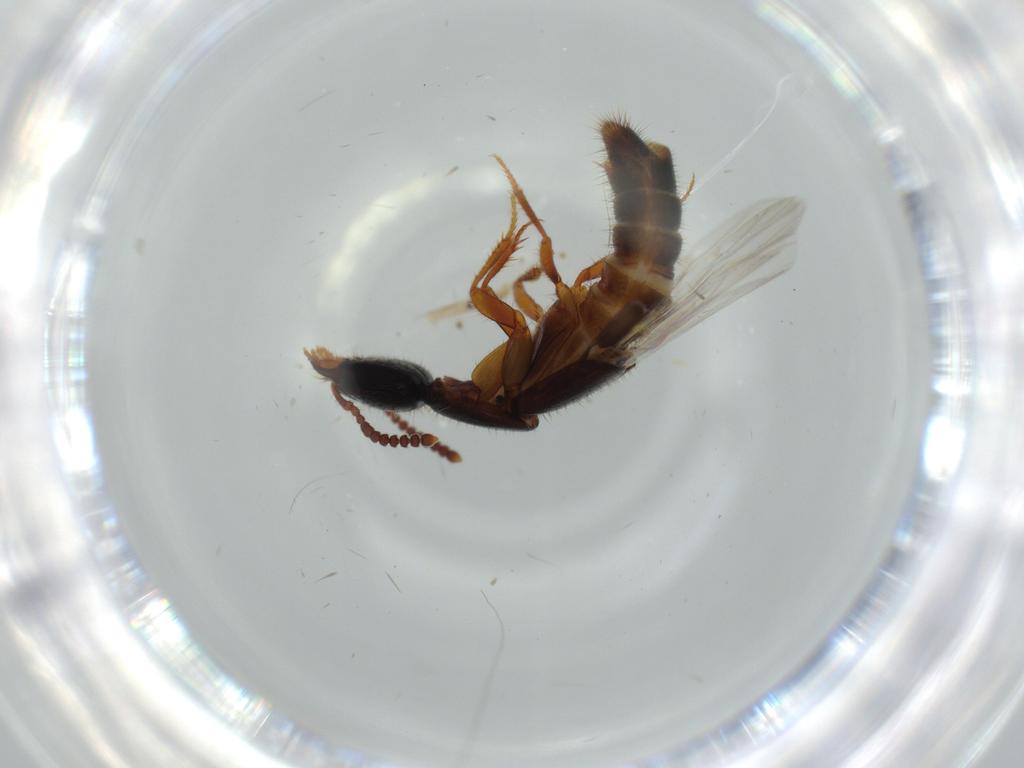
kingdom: Animalia
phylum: Arthropoda
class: Insecta
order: Coleoptera
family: Staphylinidae
